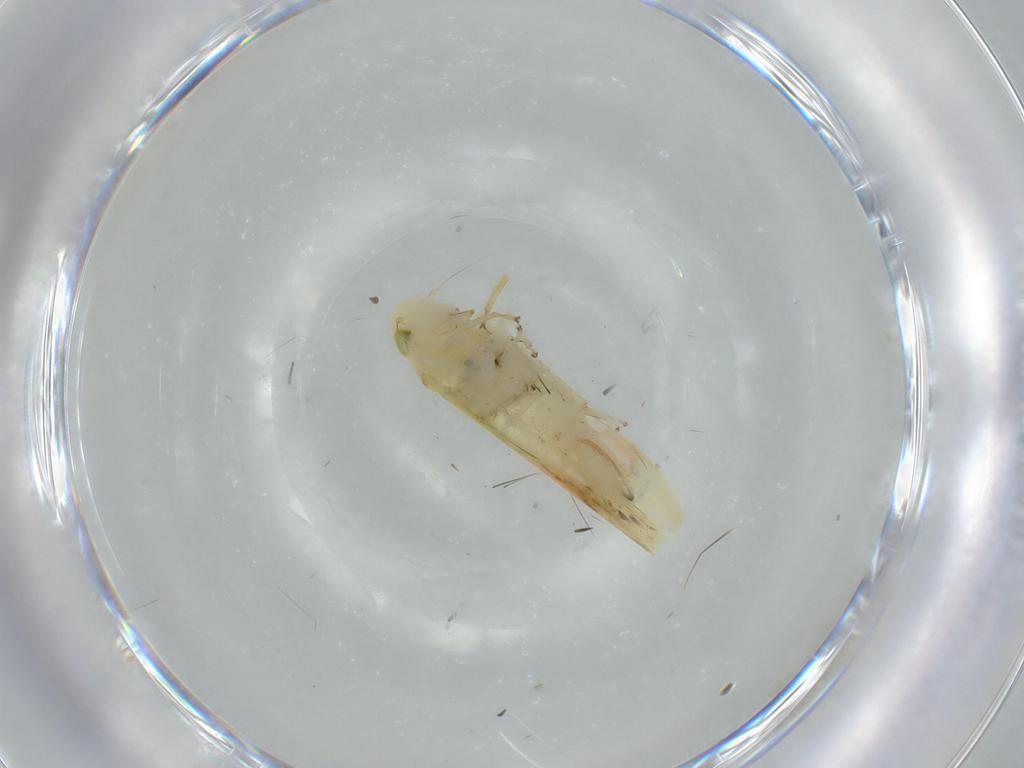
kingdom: Animalia
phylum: Arthropoda
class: Insecta
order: Hemiptera
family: Cicadellidae
